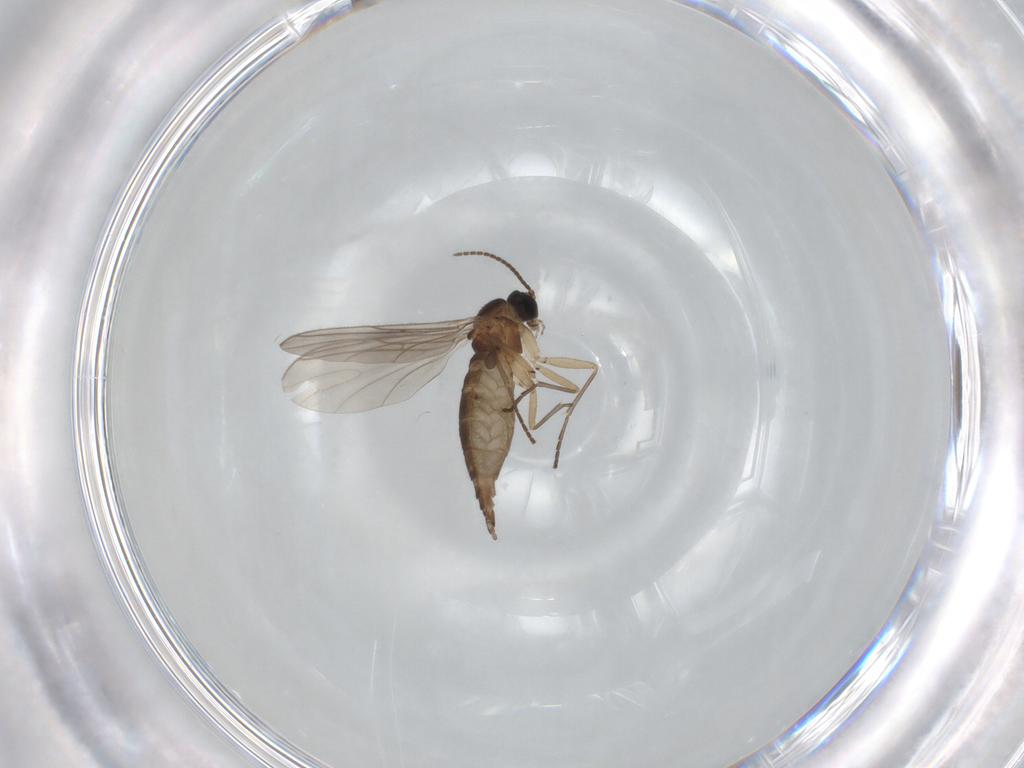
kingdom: Animalia
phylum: Arthropoda
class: Insecta
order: Diptera
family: Sciaridae
